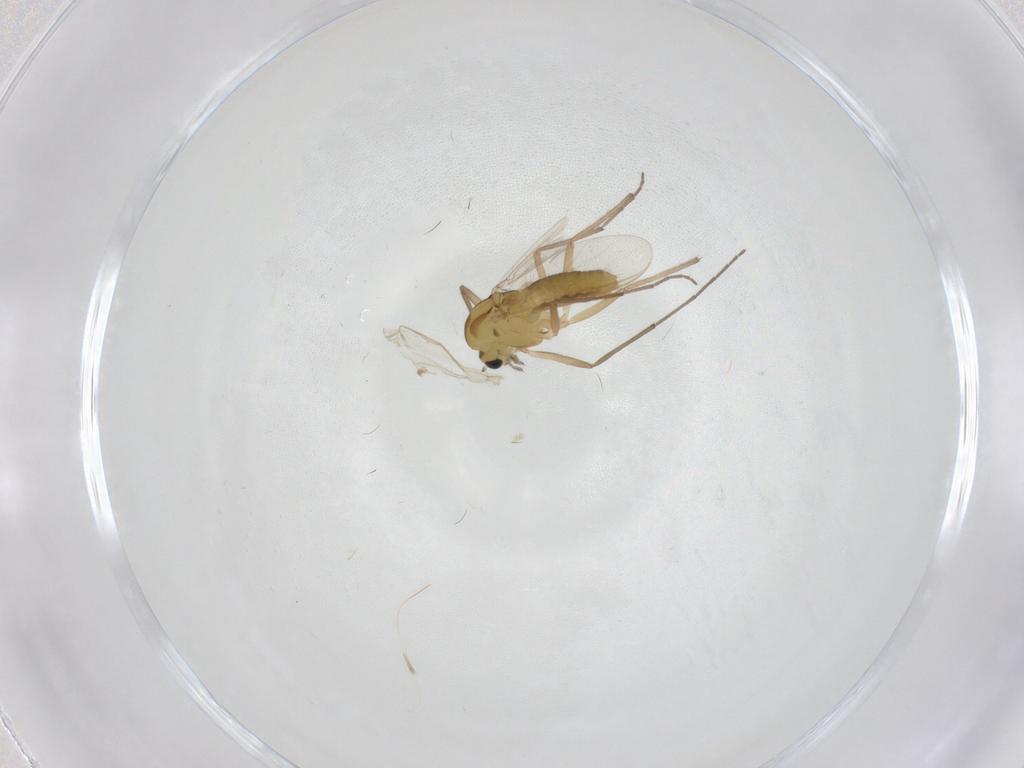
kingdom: Animalia
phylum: Arthropoda
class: Insecta
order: Diptera
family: Chironomidae
